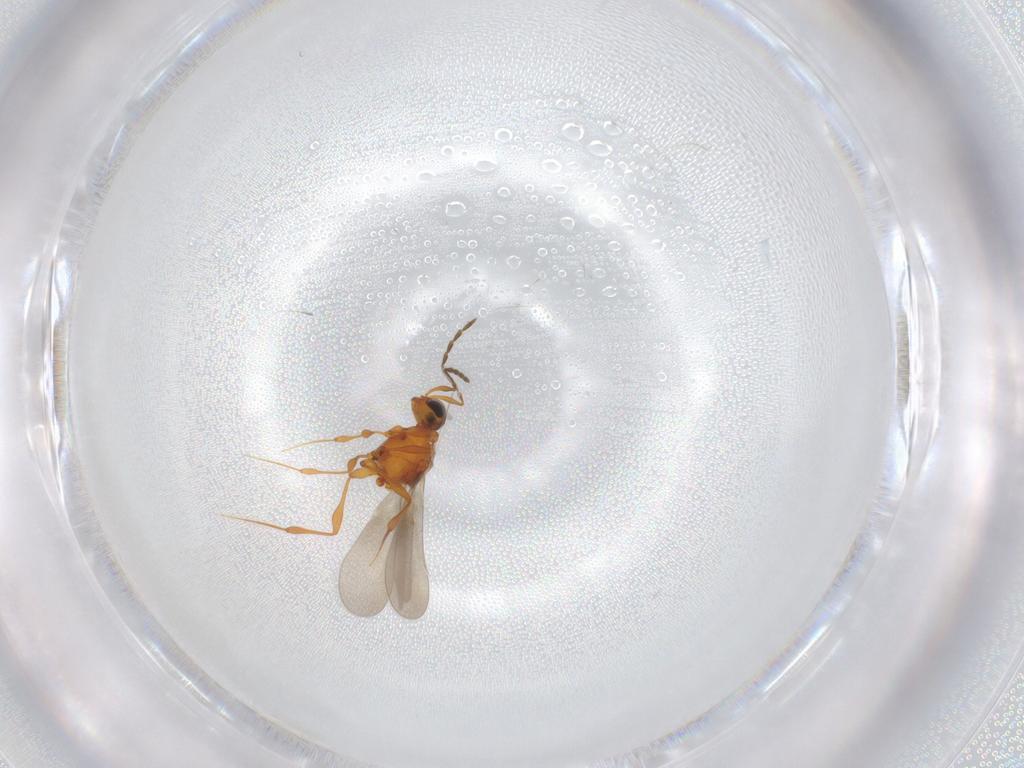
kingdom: Animalia
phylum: Arthropoda
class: Insecta
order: Hymenoptera
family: Platygastridae
